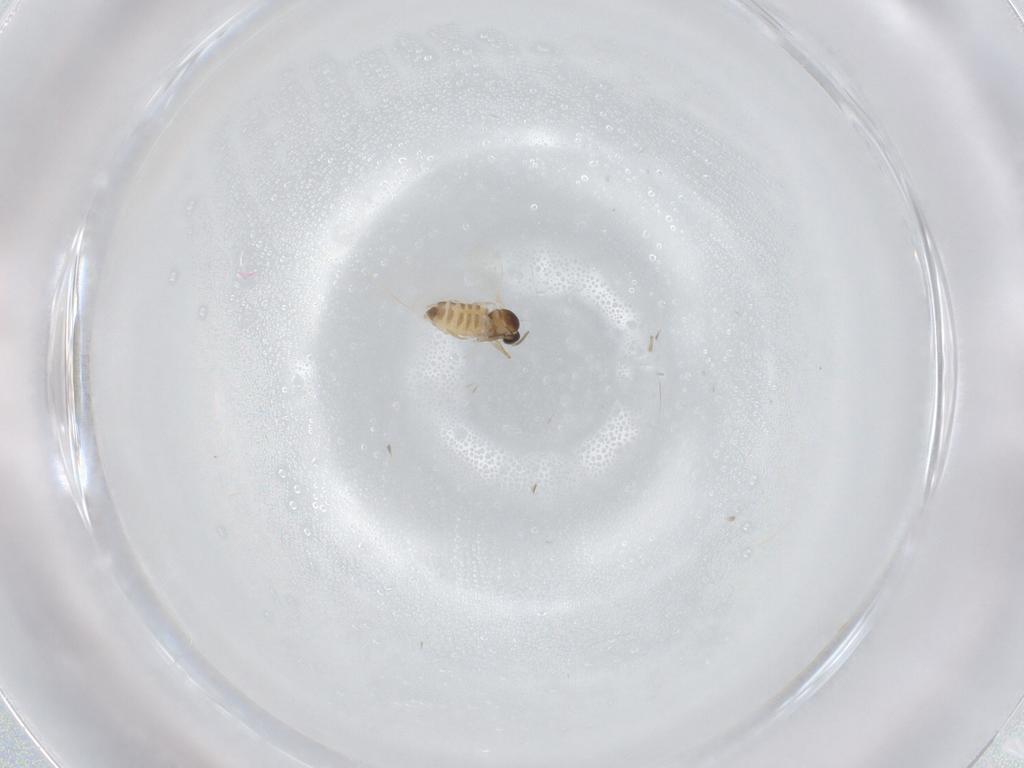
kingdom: Animalia
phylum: Arthropoda
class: Insecta
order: Diptera
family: Cecidomyiidae
